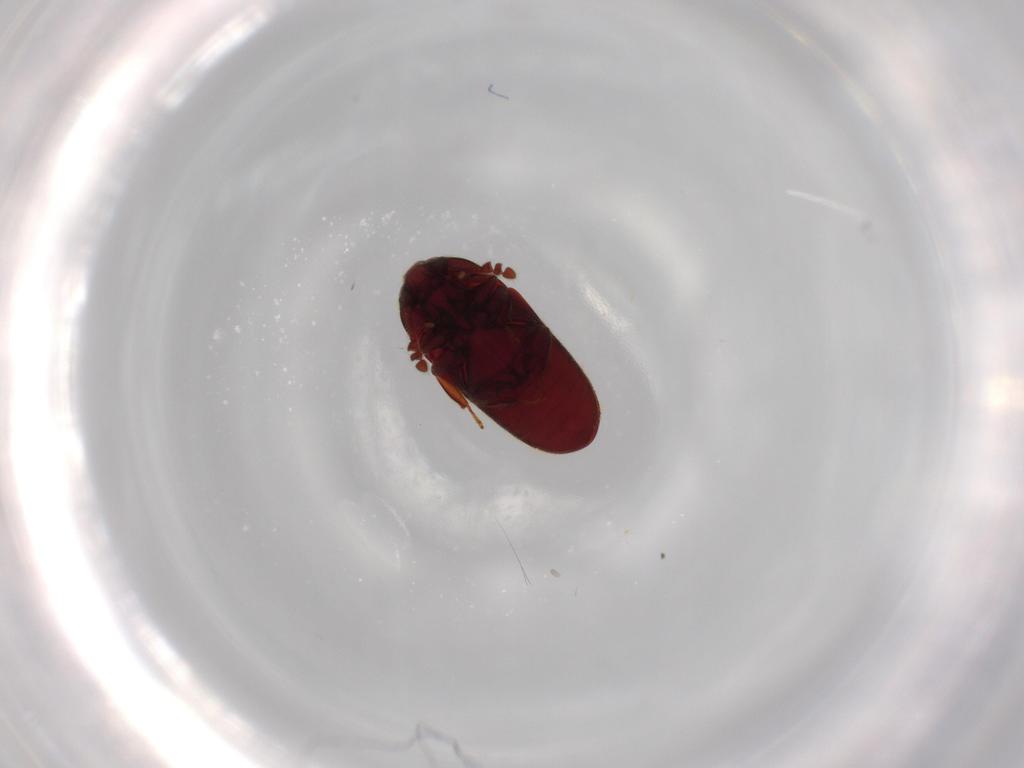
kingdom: Animalia
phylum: Arthropoda
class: Insecta
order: Coleoptera
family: Throscidae
